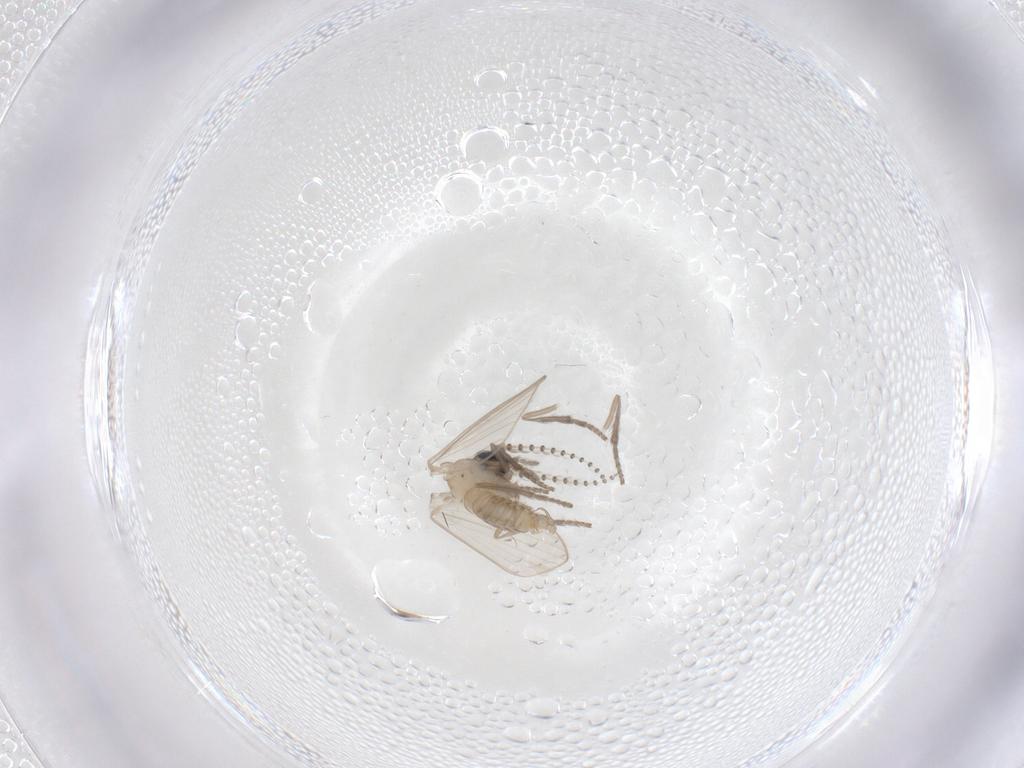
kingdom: Animalia
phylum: Arthropoda
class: Insecta
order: Diptera
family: Psychodidae
